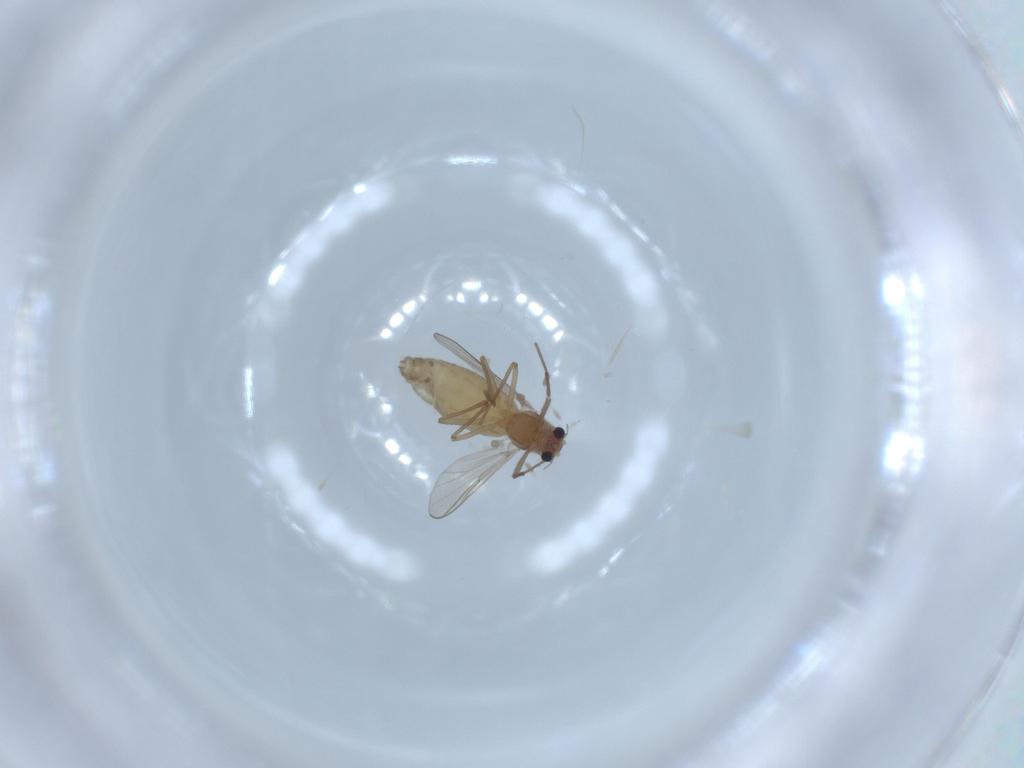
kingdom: Animalia
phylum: Arthropoda
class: Insecta
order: Diptera
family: Chironomidae
